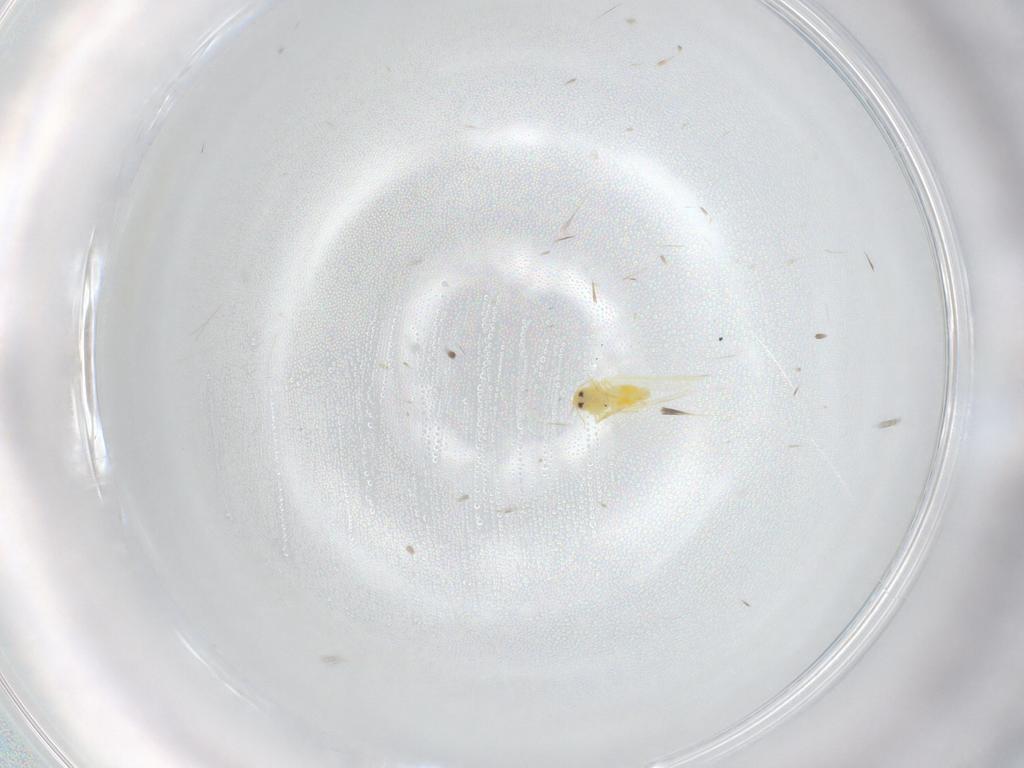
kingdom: Animalia
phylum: Arthropoda
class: Insecta
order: Hemiptera
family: Aleyrodidae
